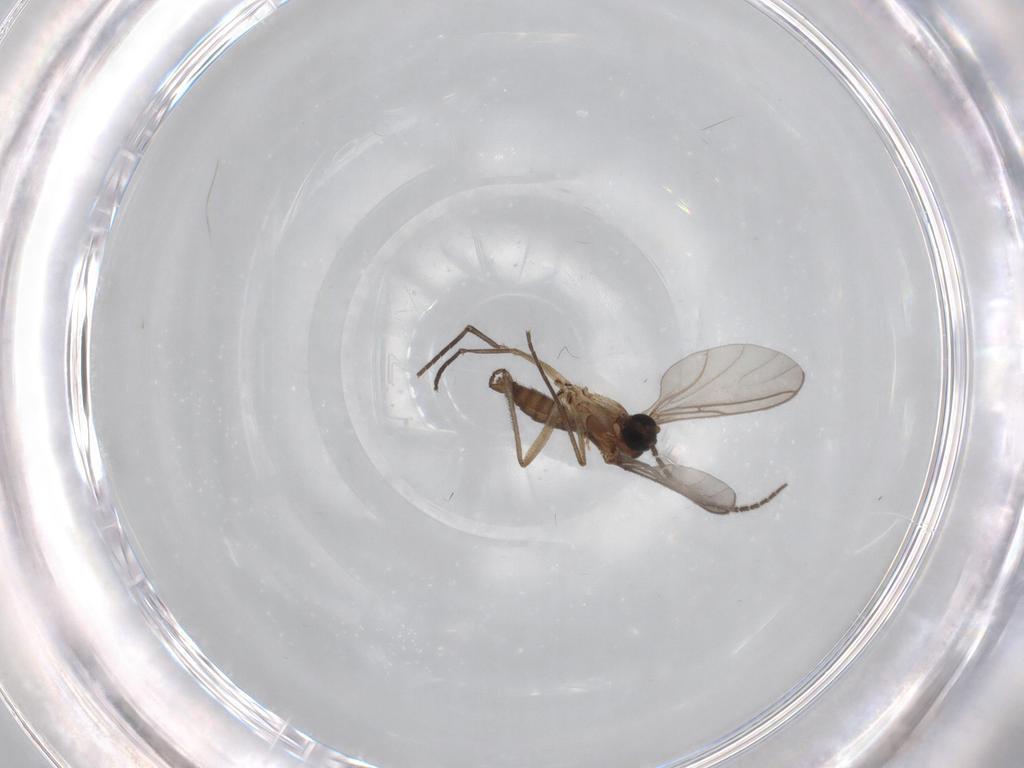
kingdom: Animalia
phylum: Arthropoda
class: Insecta
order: Diptera
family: Sciaridae
